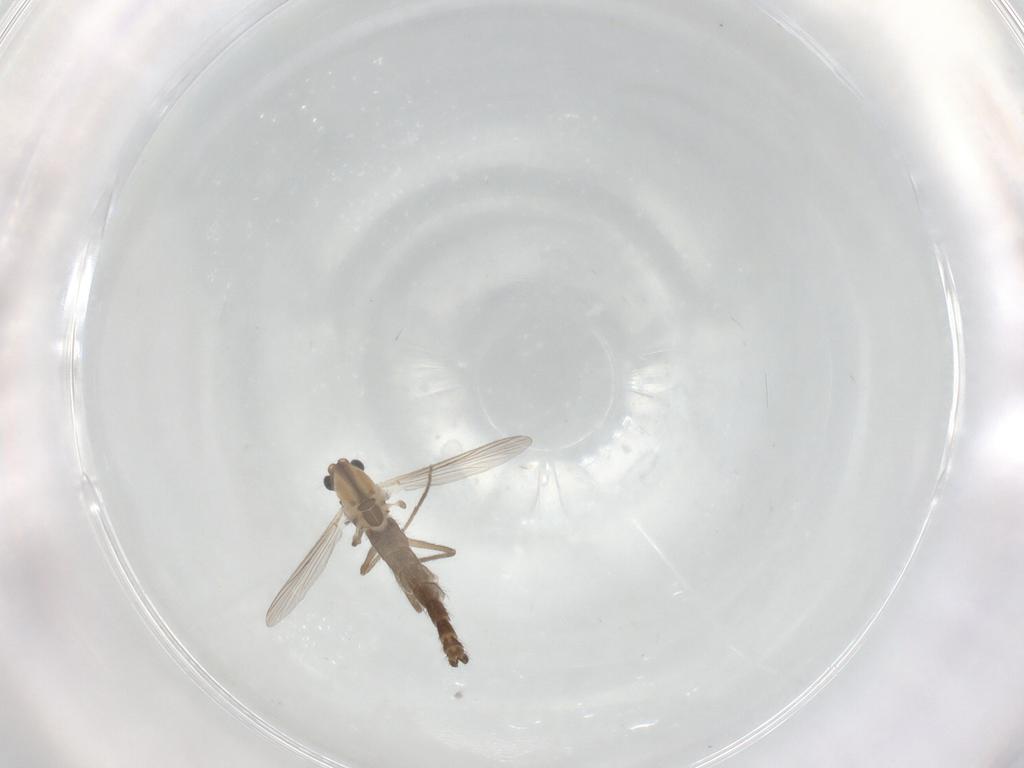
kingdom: Animalia
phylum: Arthropoda
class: Insecta
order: Diptera
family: Chironomidae
